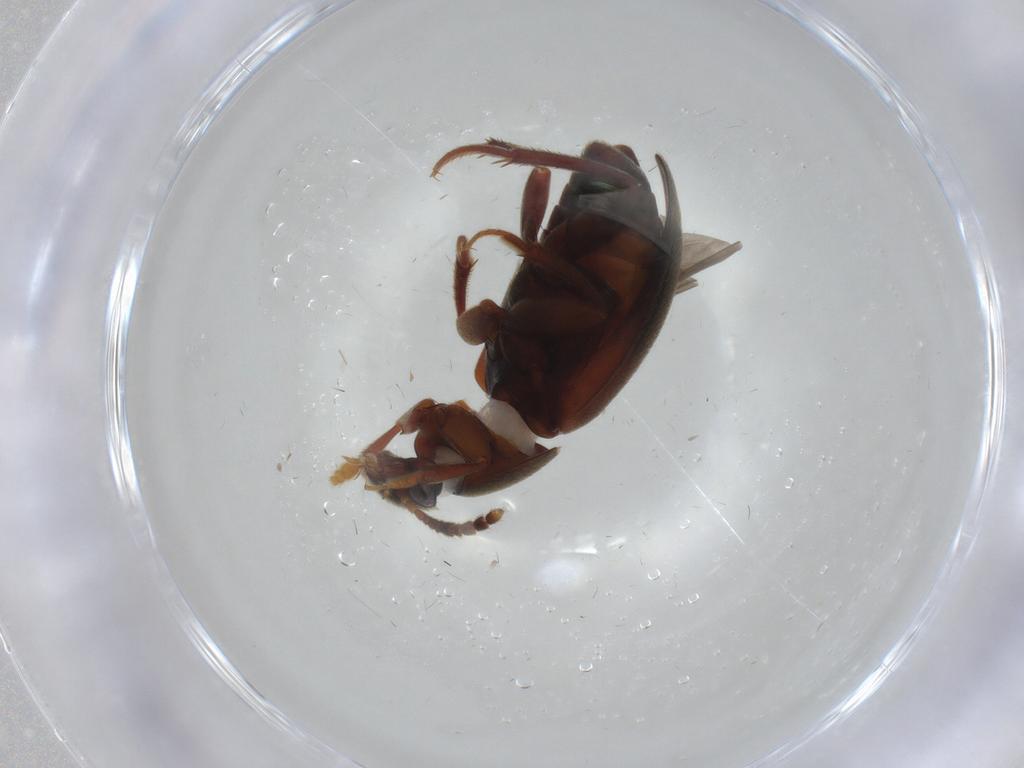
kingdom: Animalia
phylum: Arthropoda
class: Insecta
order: Coleoptera
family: Leiodidae
